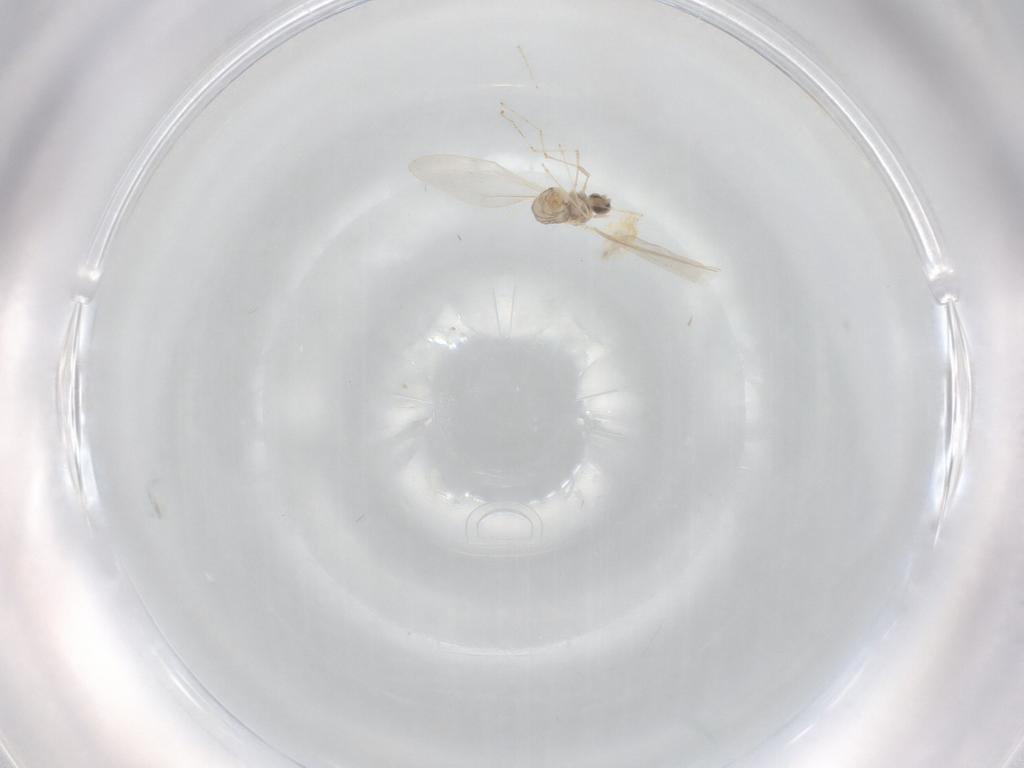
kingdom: Animalia
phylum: Arthropoda
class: Insecta
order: Diptera
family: Cecidomyiidae
